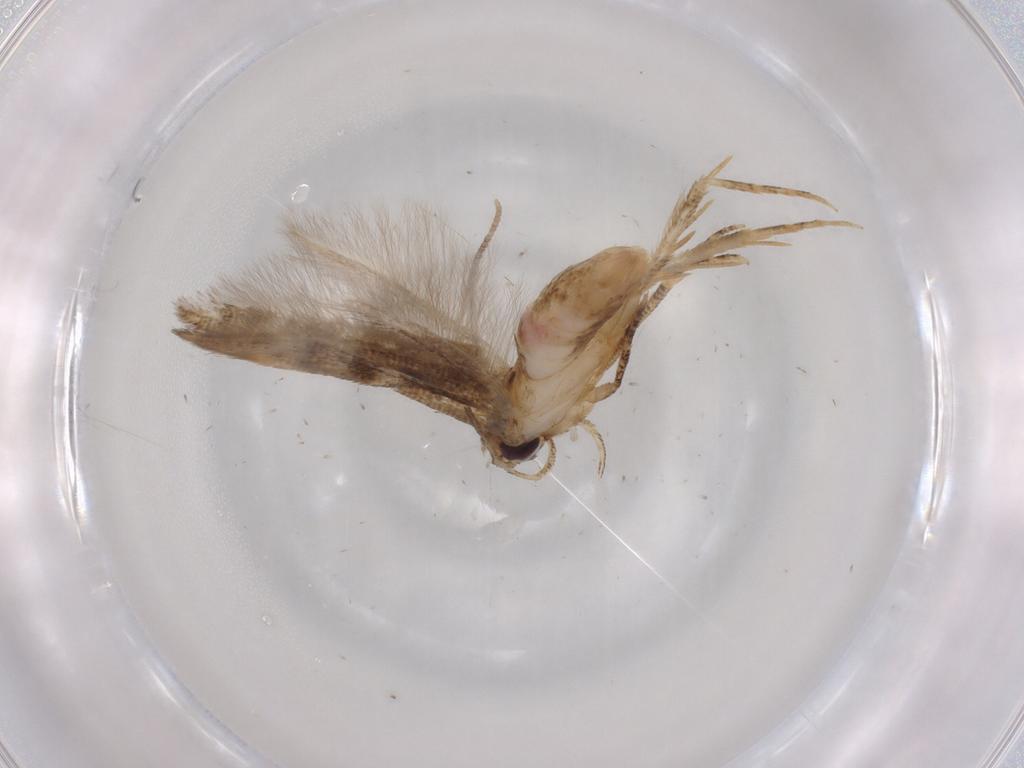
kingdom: Animalia
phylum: Arthropoda
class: Insecta
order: Lepidoptera
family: Cosmopterigidae
